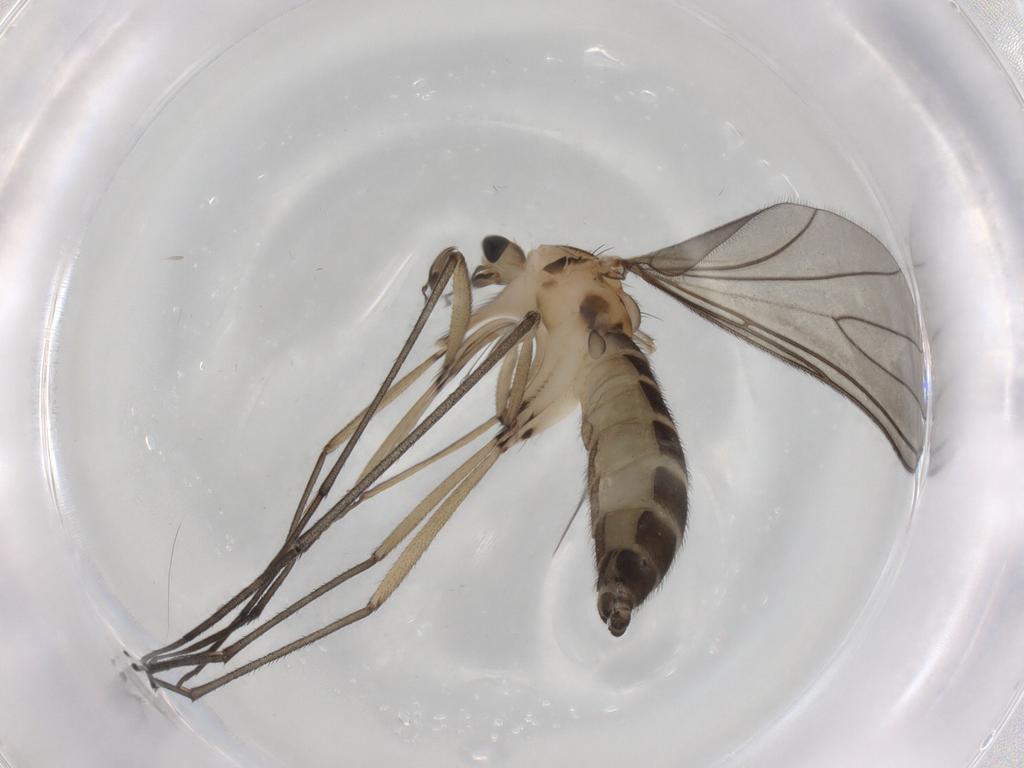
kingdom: Animalia
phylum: Arthropoda
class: Insecta
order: Diptera
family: Sciaridae
